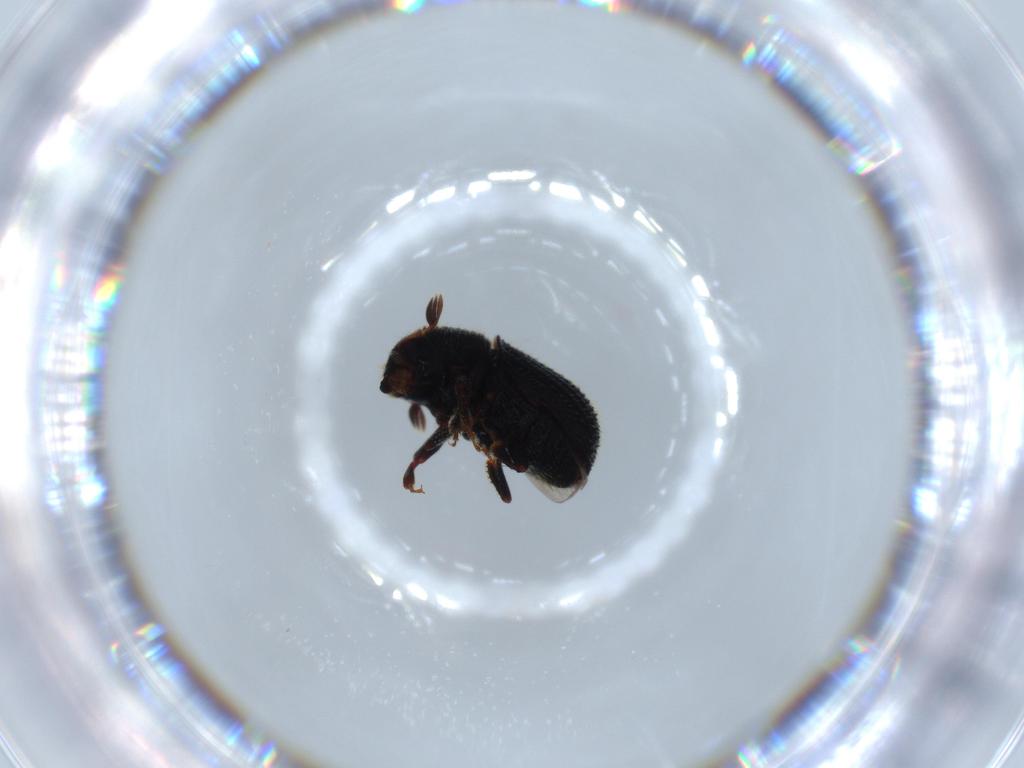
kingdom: Animalia
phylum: Arthropoda
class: Insecta
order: Coleoptera
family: Curculionidae
